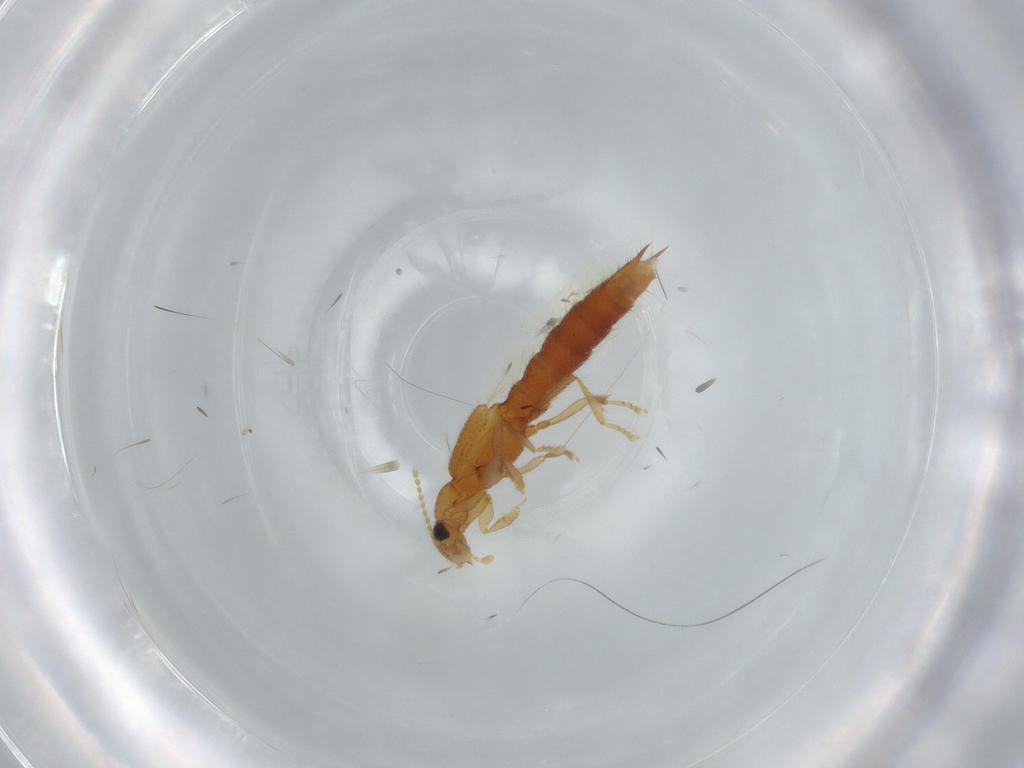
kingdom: Animalia
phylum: Arthropoda
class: Insecta
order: Coleoptera
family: Staphylinidae
